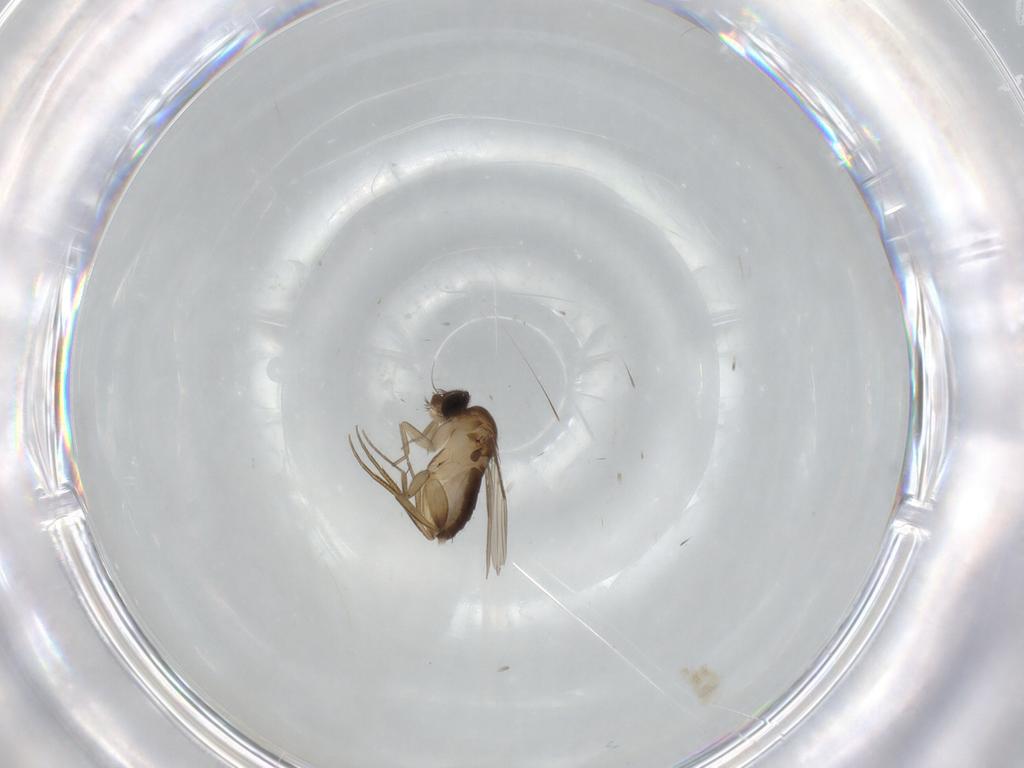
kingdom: Animalia
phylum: Arthropoda
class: Insecta
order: Diptera
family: Phoridae
